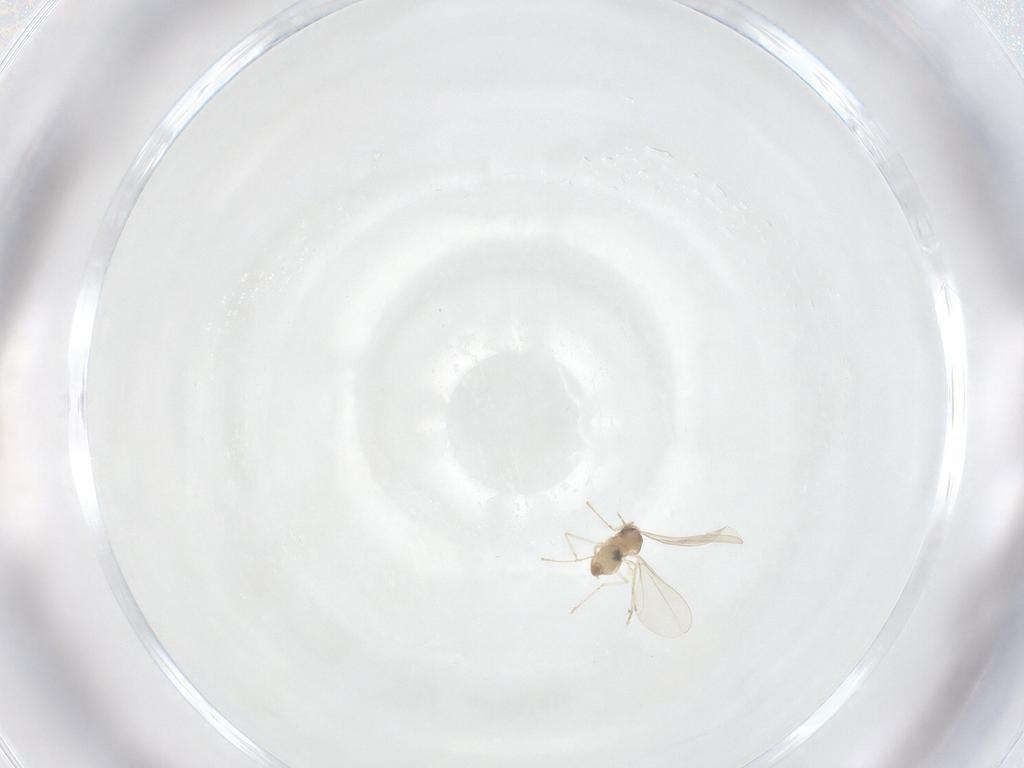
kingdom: Animalia
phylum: Arthropoda
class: Insecta
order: Diptera
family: Cecidomyiidae
